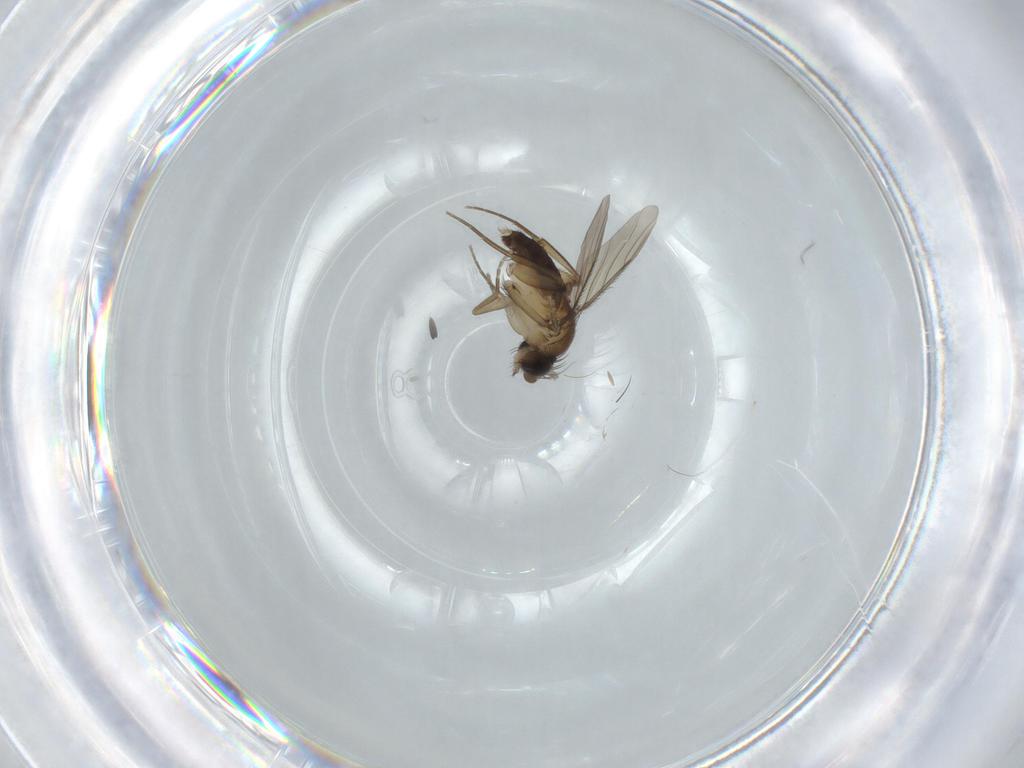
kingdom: Animalia
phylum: Arthropoda
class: Insecta
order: Diptera
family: Phoridae
